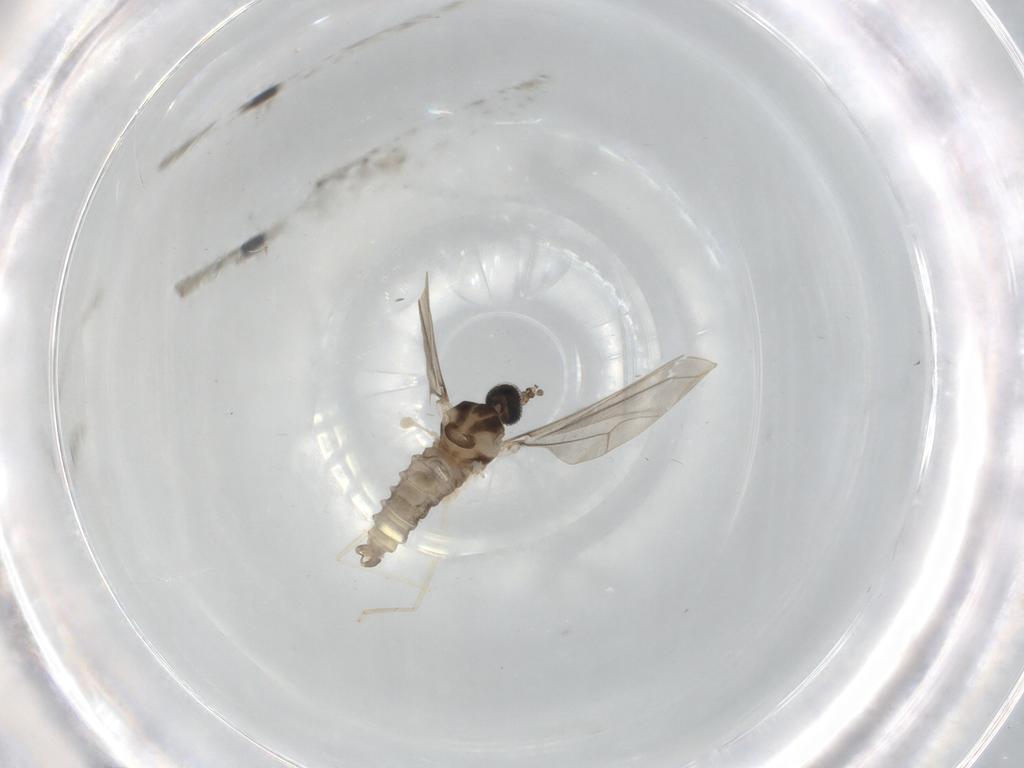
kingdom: Animalia
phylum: Arthropoda
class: Insecta
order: Diptera
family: Cecidomyiidae
